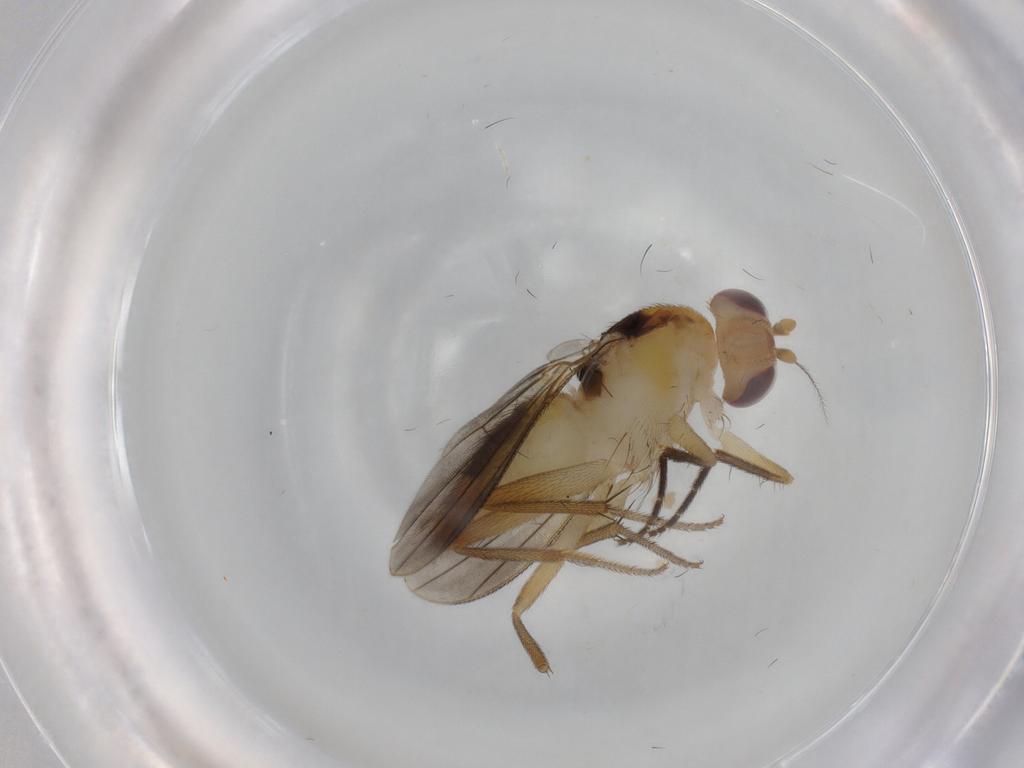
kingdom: Animalia
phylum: Arthropoda
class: Insecta
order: Diptera
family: Clusiidae
